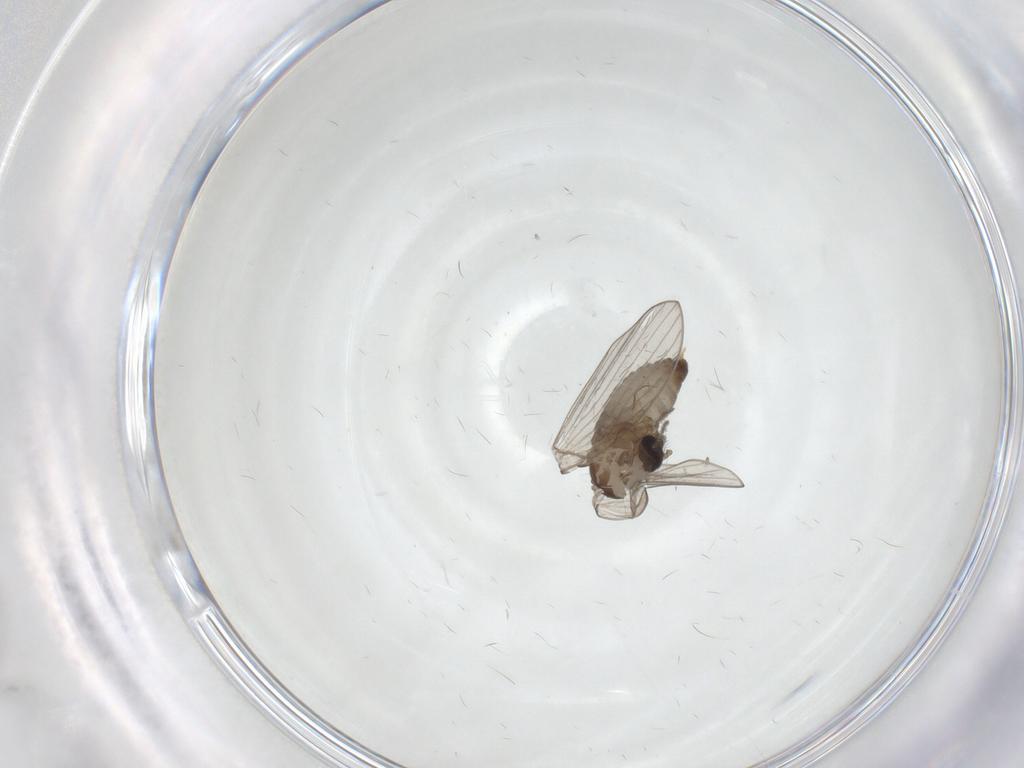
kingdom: Animalia
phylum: Arthropoda
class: Insecta
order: Diptera
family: Psychodidae
